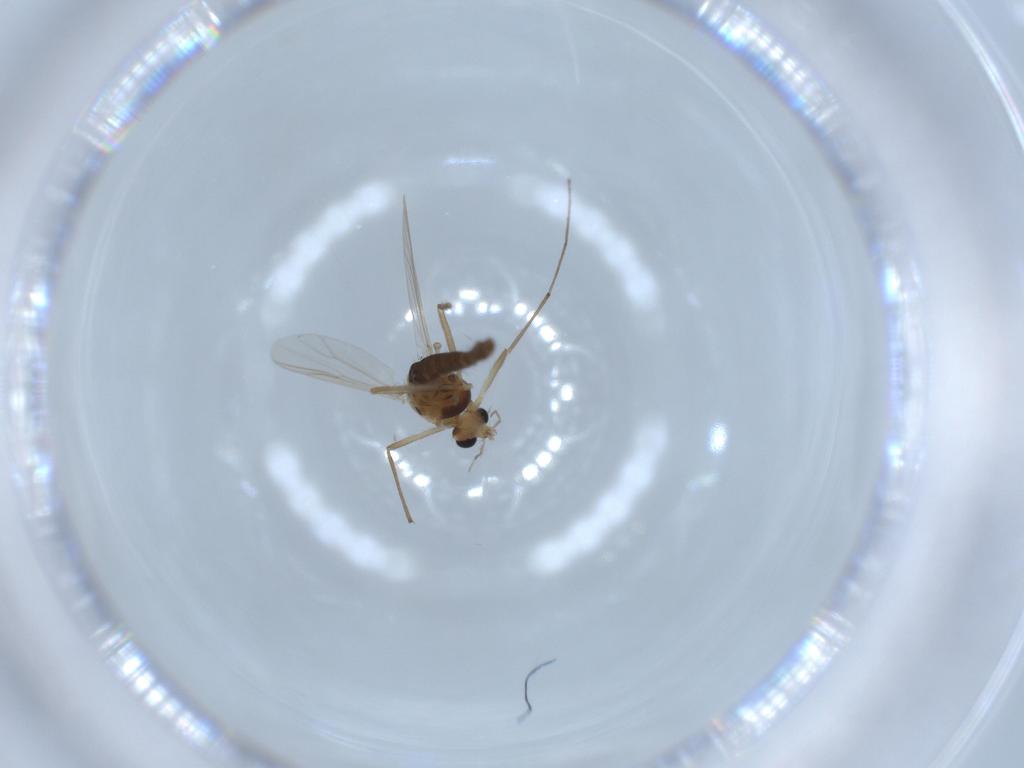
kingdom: Animalia
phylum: Arthropoda
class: Insecta
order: Diptera
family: Chironomidae
